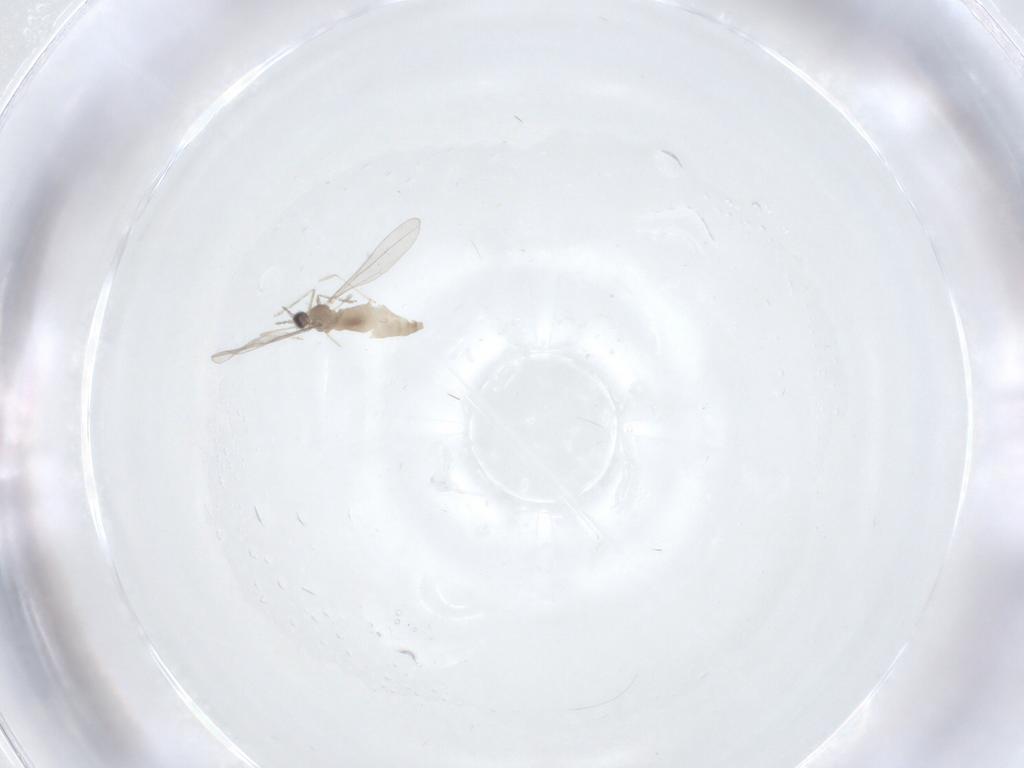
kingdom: Animalia
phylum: Arthropoda
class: Insecta
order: Diptera
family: Cecidomyiidae
